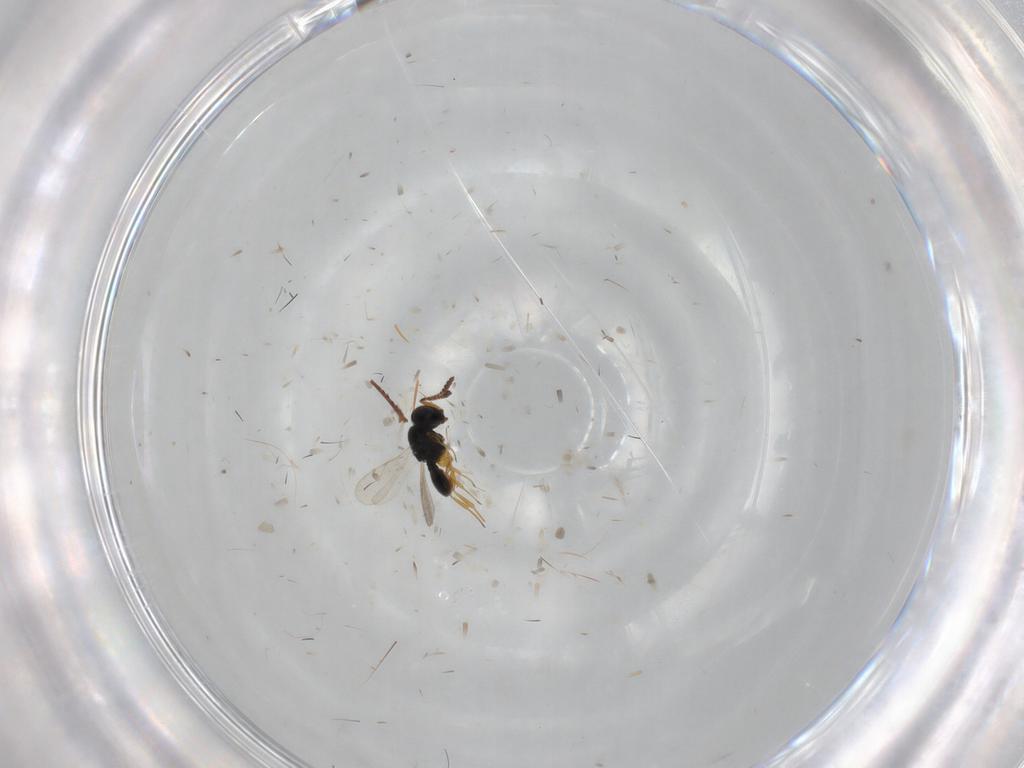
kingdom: Animalia
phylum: Arthropoda
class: Insecta
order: Hymenoptera
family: Scelionidae
